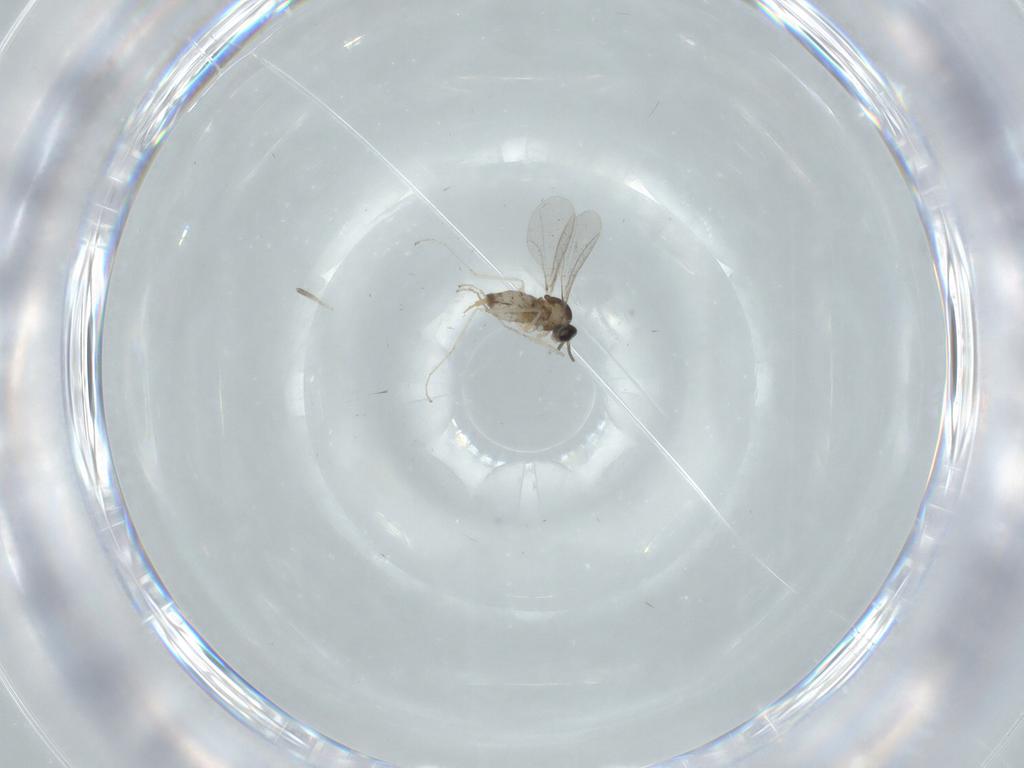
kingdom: Animalia
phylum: Arthropoda
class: Insecta
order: Diptera
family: Cecidomyiidae
